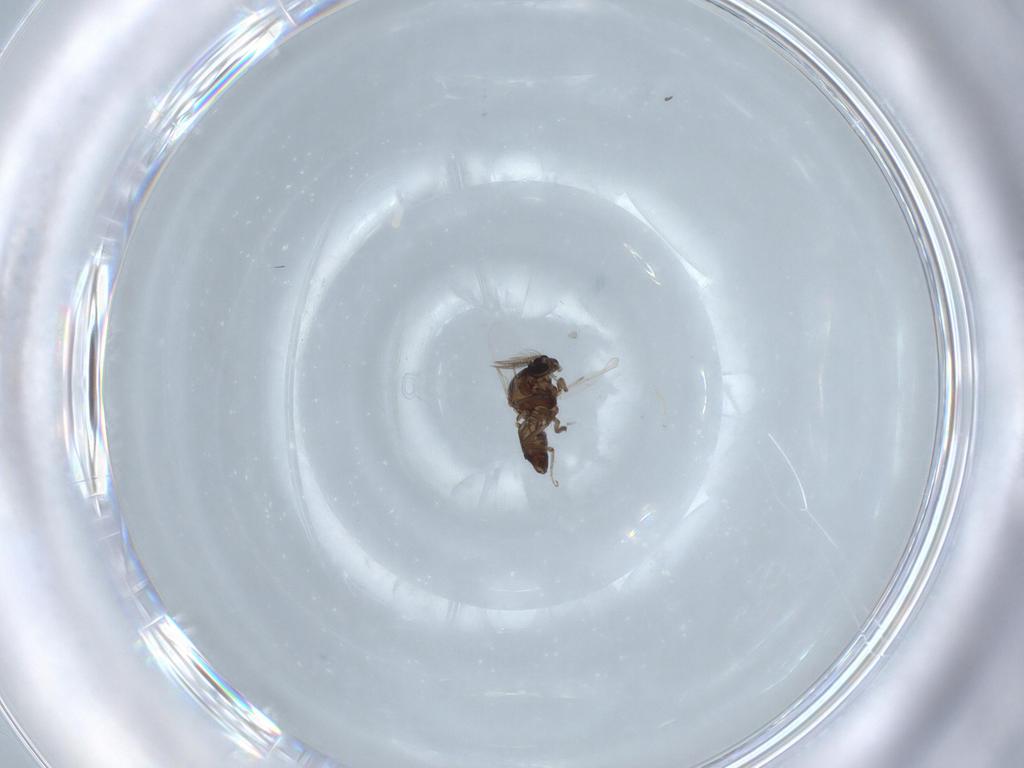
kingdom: Animalia
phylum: Arthropoda
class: Insecta
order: Diptera
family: Ceratopogonidae
